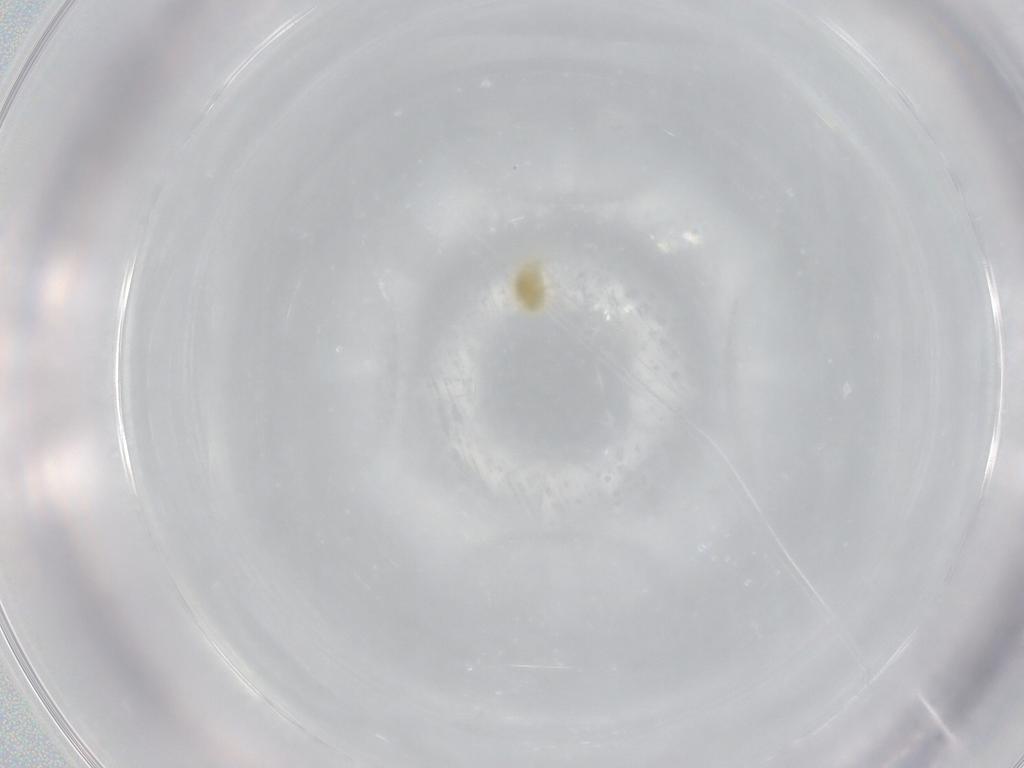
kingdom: Animalia
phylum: Arthropoda
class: Arachnida
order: Trombidiformes
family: Tetranychidae
